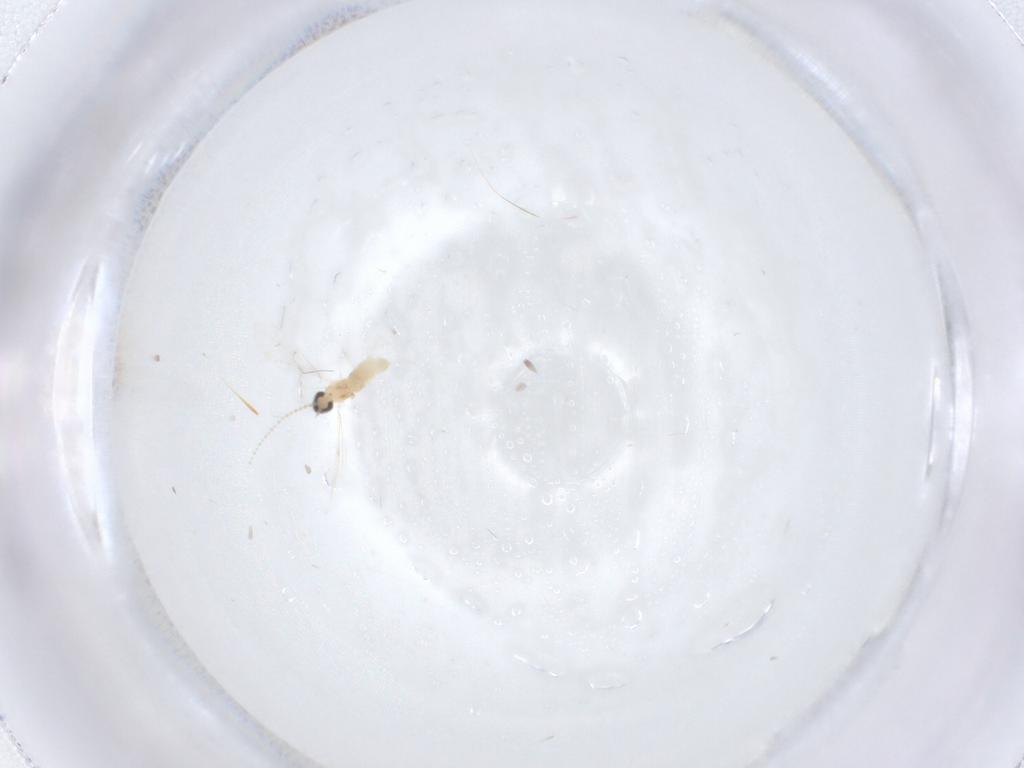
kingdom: Animalia
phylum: Arthropoda
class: Insecta
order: Diptera
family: Cecidomyiidae
